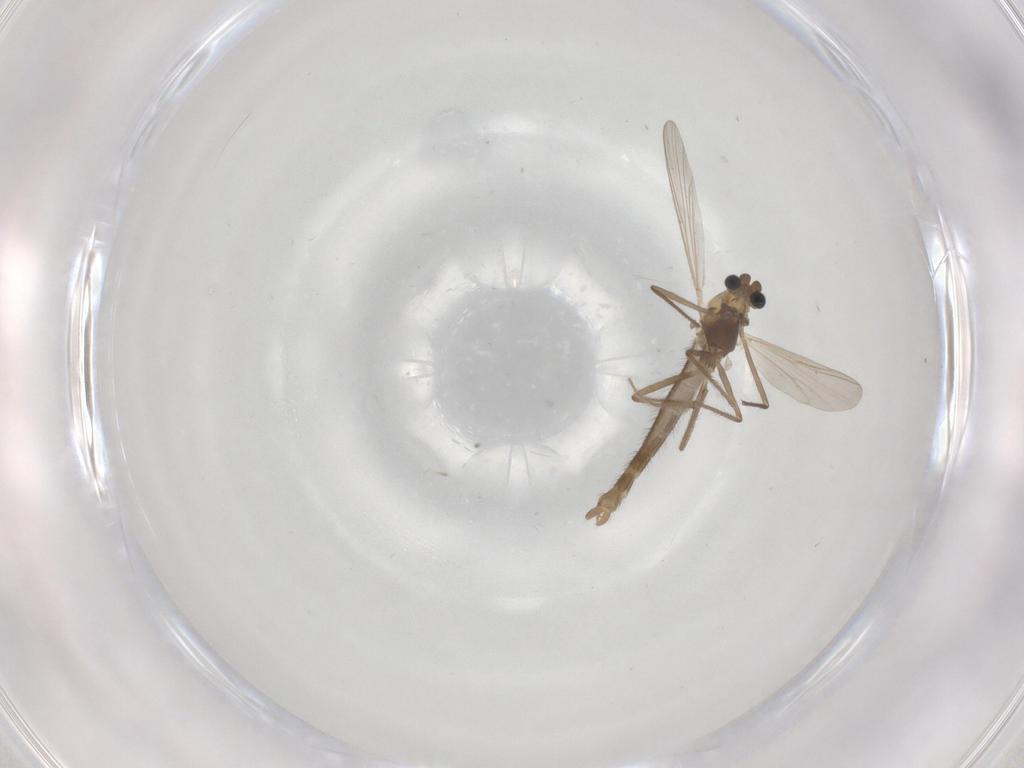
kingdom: Animalia
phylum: Arthropoda
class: Insecta
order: Diptera
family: Chironomidae
